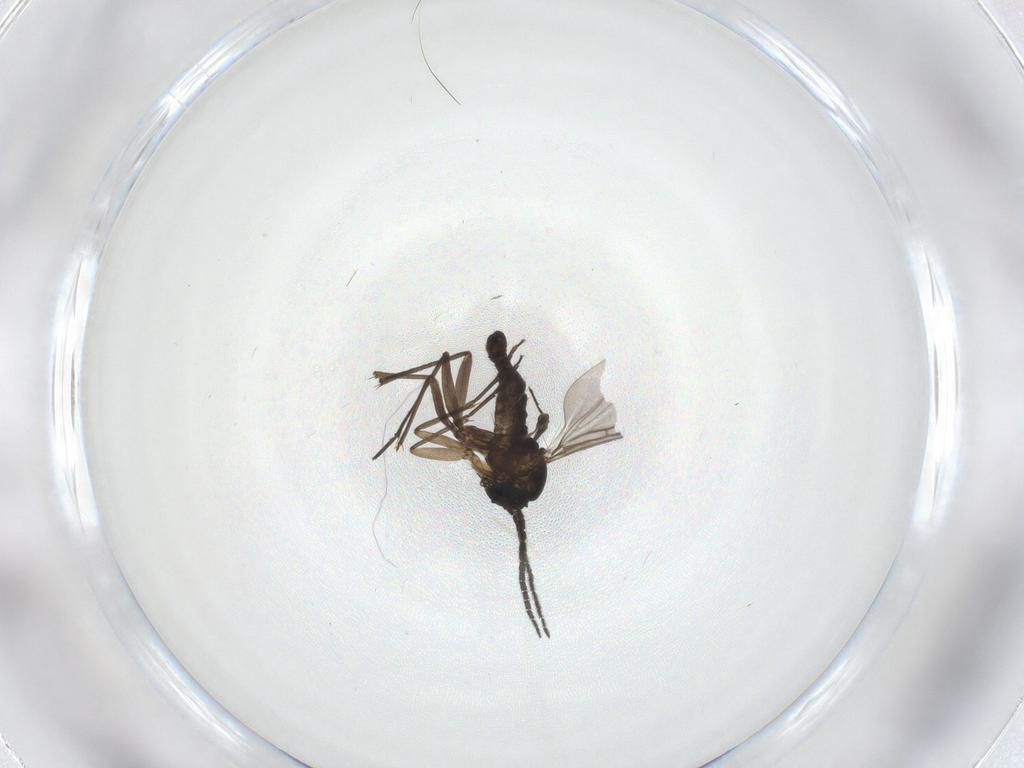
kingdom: Animalia
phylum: Arthropoda
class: Insecta
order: Diptera
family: Sciaridae
